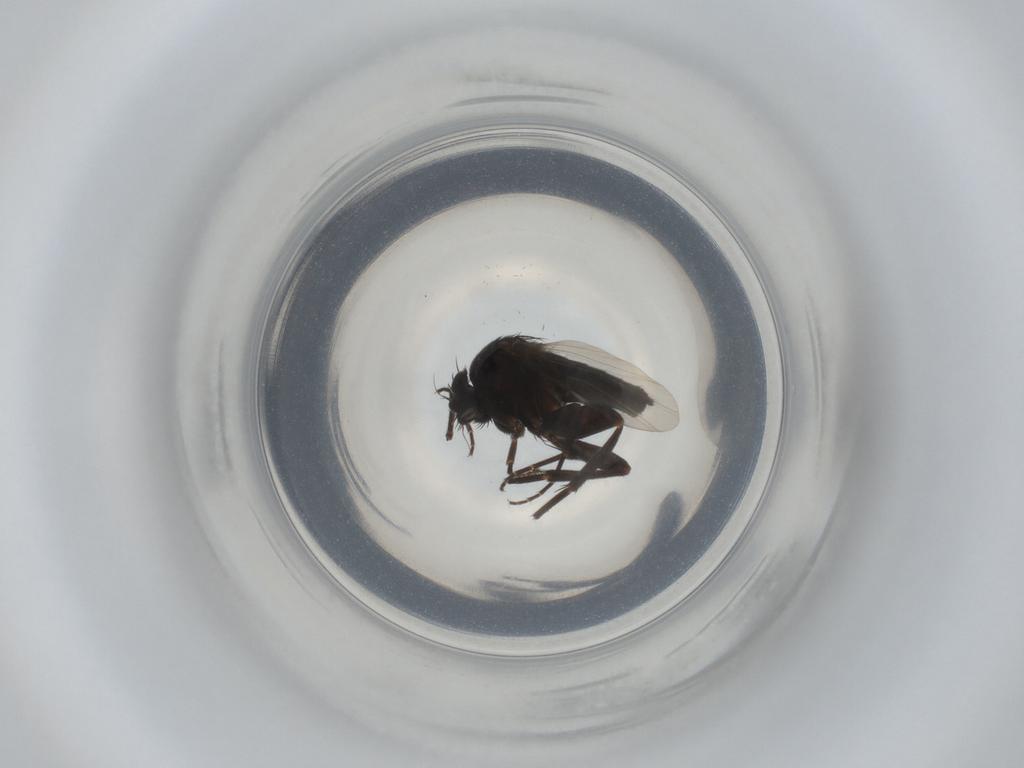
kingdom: Animalia
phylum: Arthropoda
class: Insecta
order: Diptera
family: Phoridae
